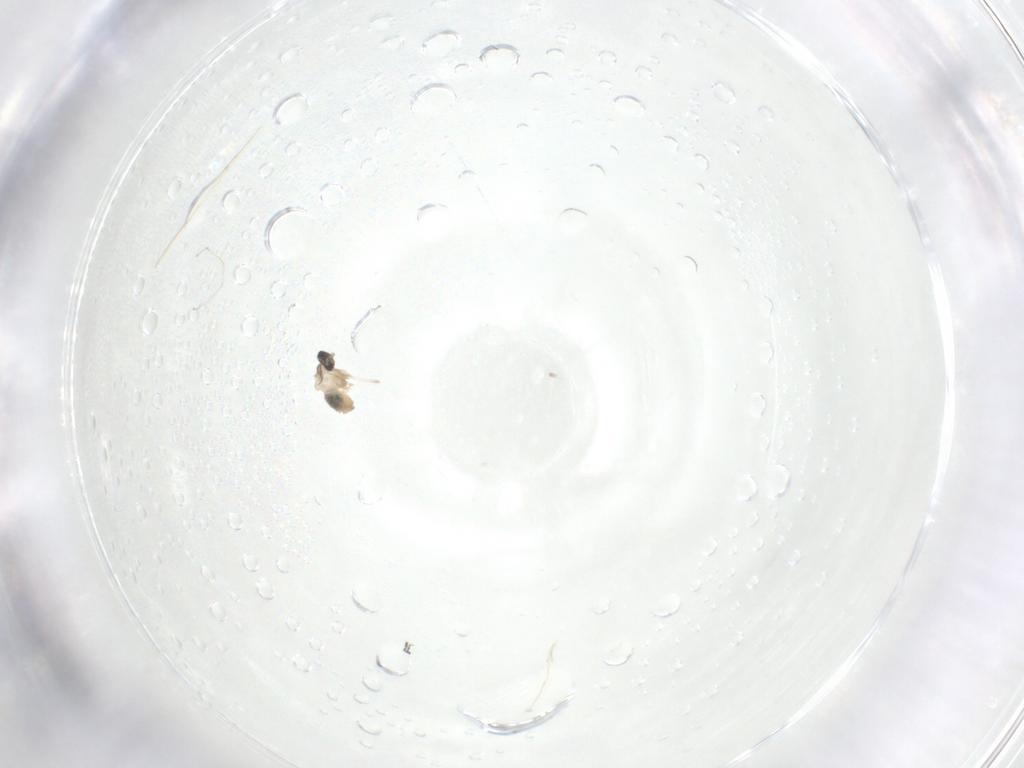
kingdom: Animalia
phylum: Arthropoda
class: Insecta
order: Diptera
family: Cecidomyiidae
